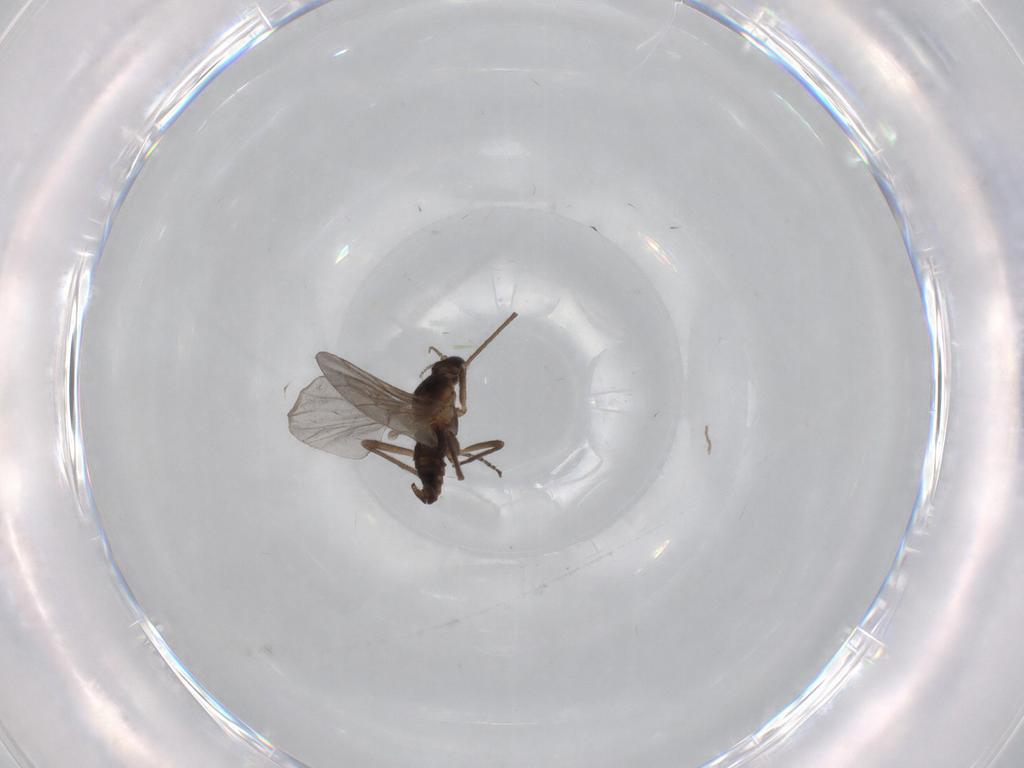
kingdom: Animalia
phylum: Arthropoda
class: Insecta
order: Diptera
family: Cecidomyiidae
